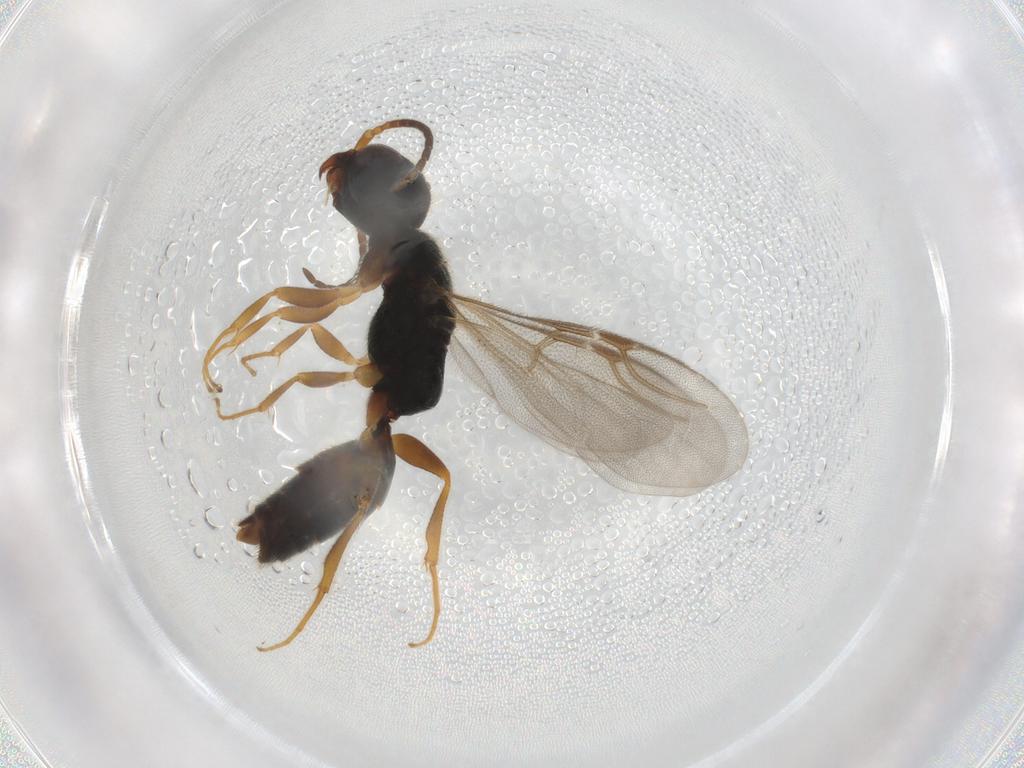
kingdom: Animalia
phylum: Arthropoda
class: Insecta
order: Hymenoptera
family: Bethylidae
